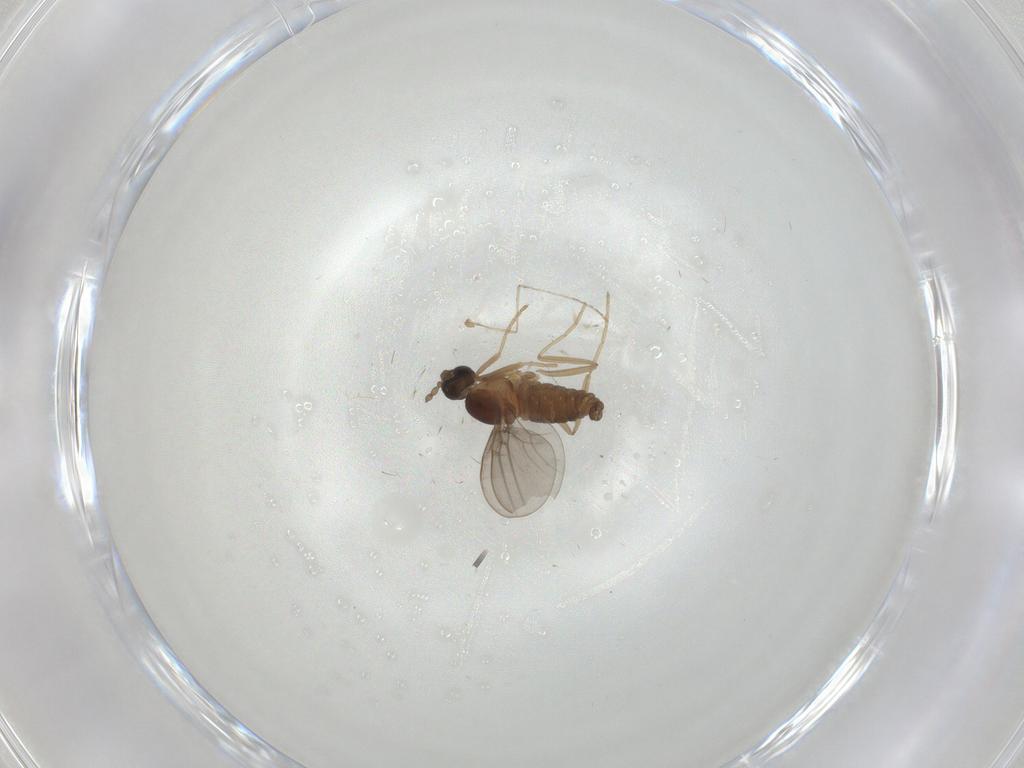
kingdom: Animalia
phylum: Arthropoda
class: Insecta
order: Diptera
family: Cecidomyiidae
